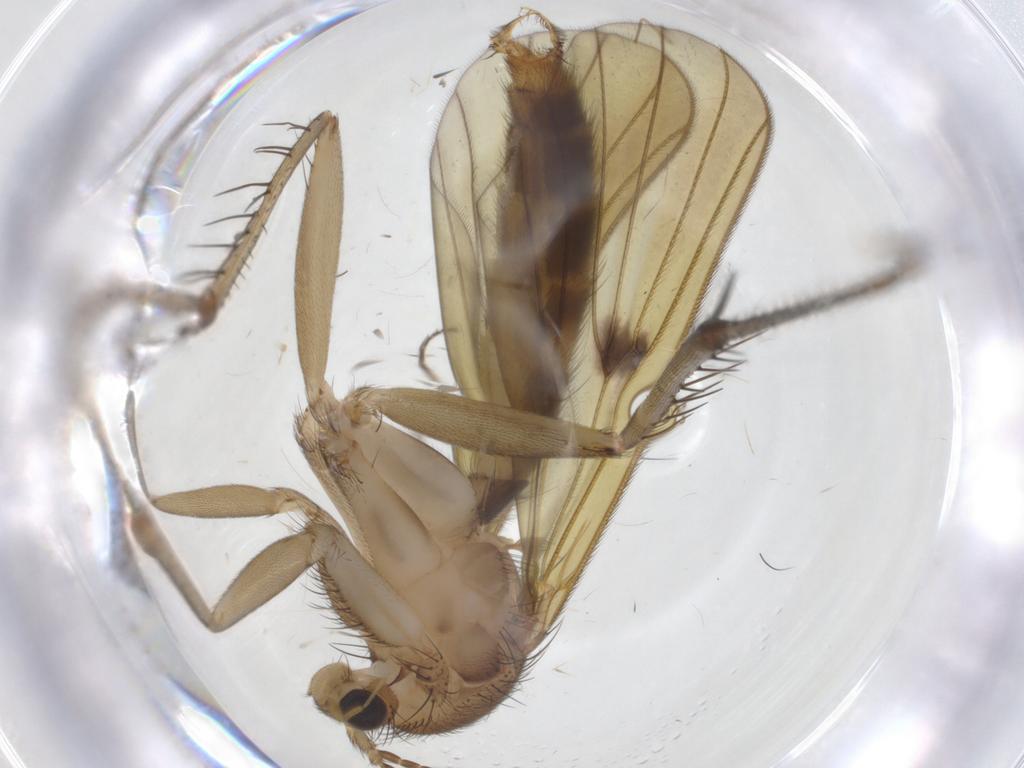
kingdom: Animalia
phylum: Arthropoda
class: Insecta
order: Diptera
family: Mycetophilidae
